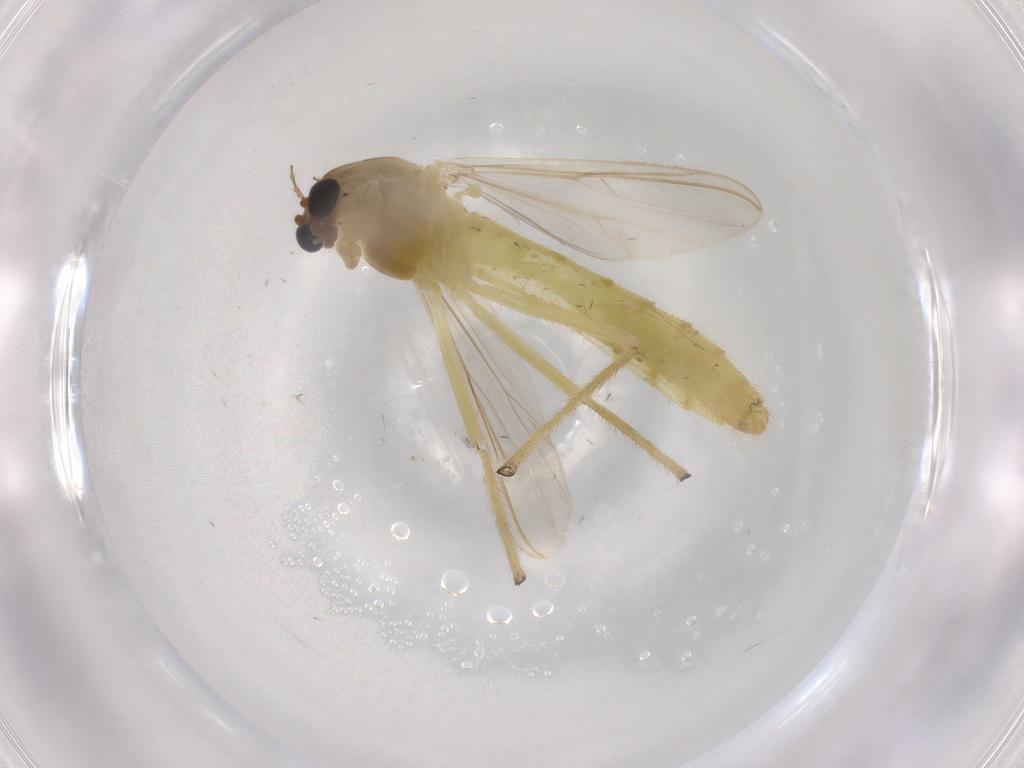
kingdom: Animalia
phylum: Arthropoda
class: Insecta
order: Diptera
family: Chironomidae
